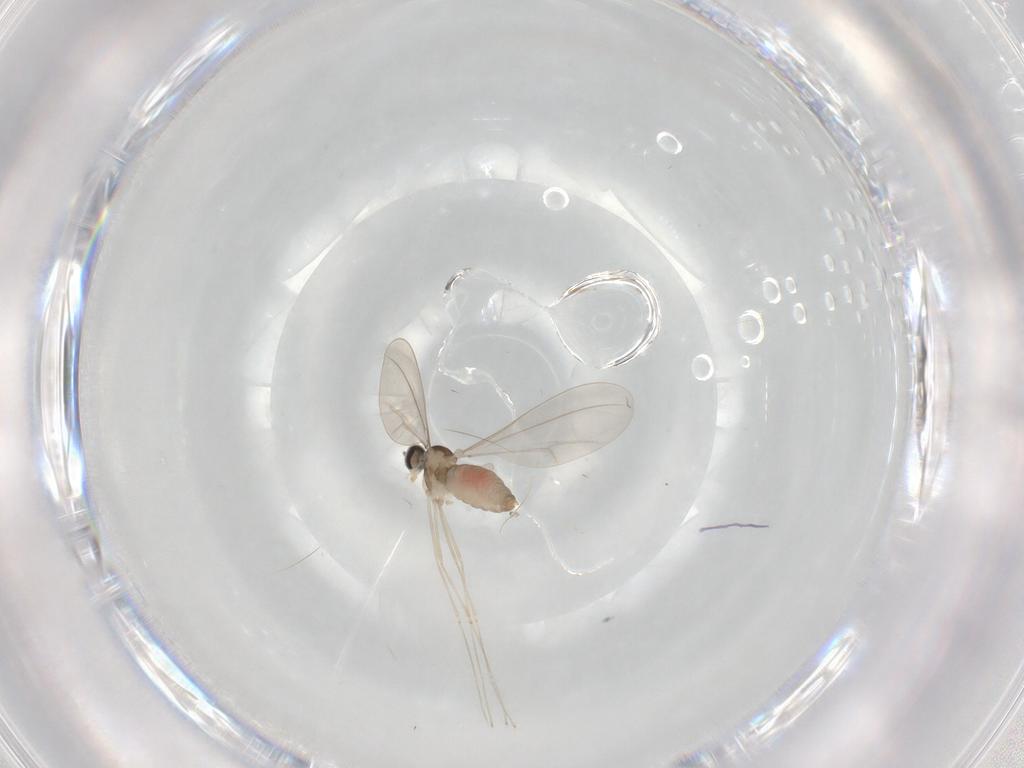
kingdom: Animalia
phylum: Arthropoda
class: Insecta
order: Diptera
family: Cecidomyiidae
